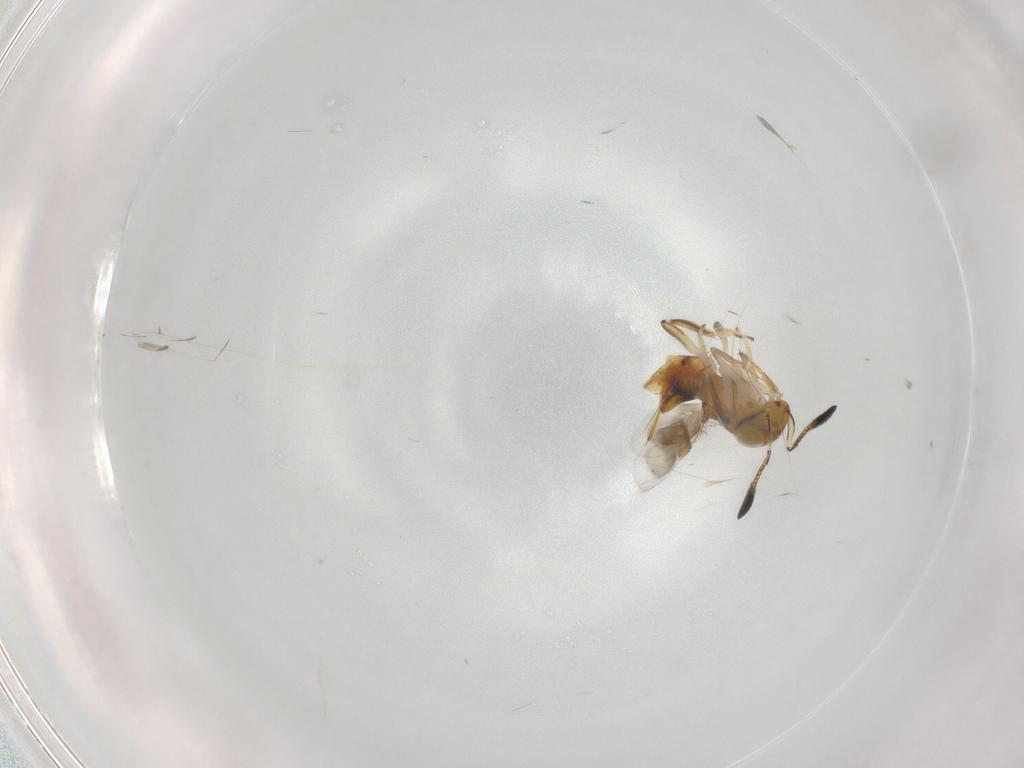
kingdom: Animalia
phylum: Arthropoda
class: Insecta
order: Hymenoptera
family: Encyrtidae
